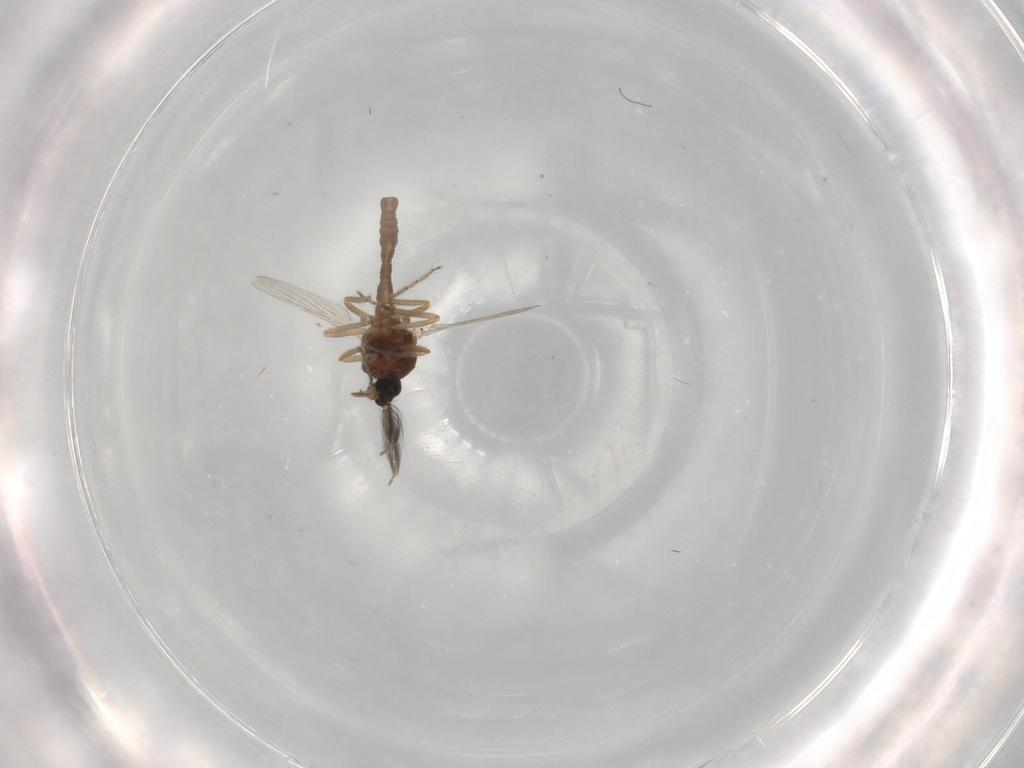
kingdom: Animalia
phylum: Arthropoda
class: Insecta
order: Diptera
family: Ceratopogonidae
